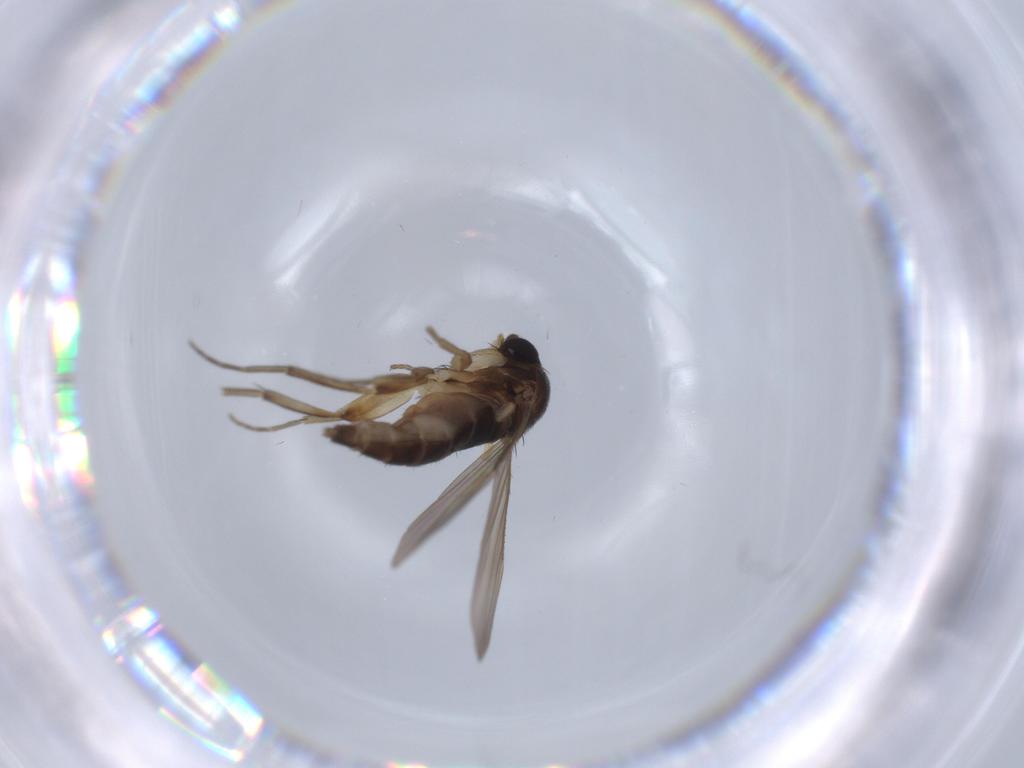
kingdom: Animalia
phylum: Arthropoda
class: Insecta
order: Diptera
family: Phoridae
